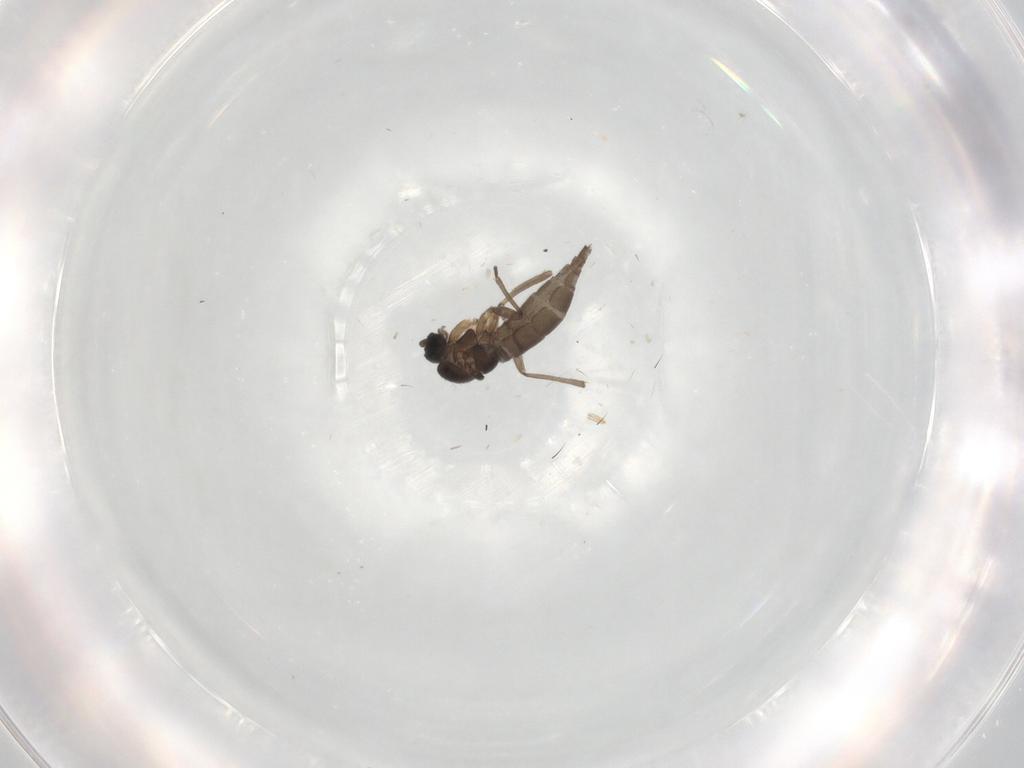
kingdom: Animalia
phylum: Arthropoda
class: Insecta
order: Diptera
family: Sciaridae
